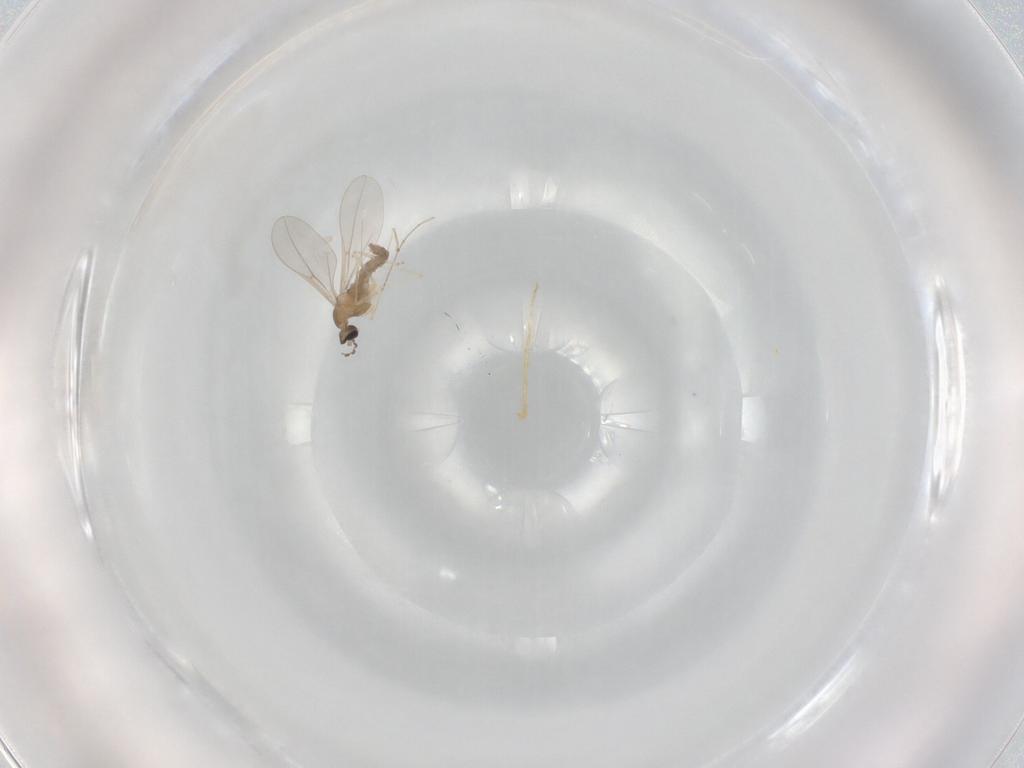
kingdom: Animalia
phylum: Arthropoda
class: Insecta
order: Diptera
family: Cecidomyiidae
